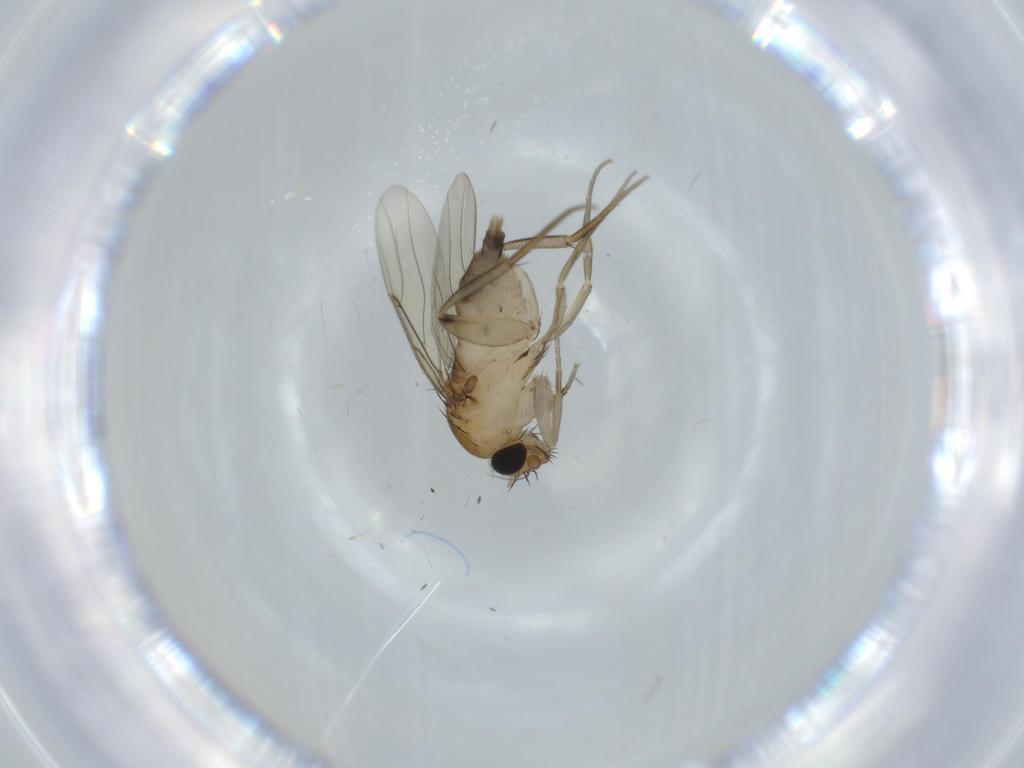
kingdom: Animalia
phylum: Arthropoda
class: Insecta
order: Diptera
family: Phoridae
